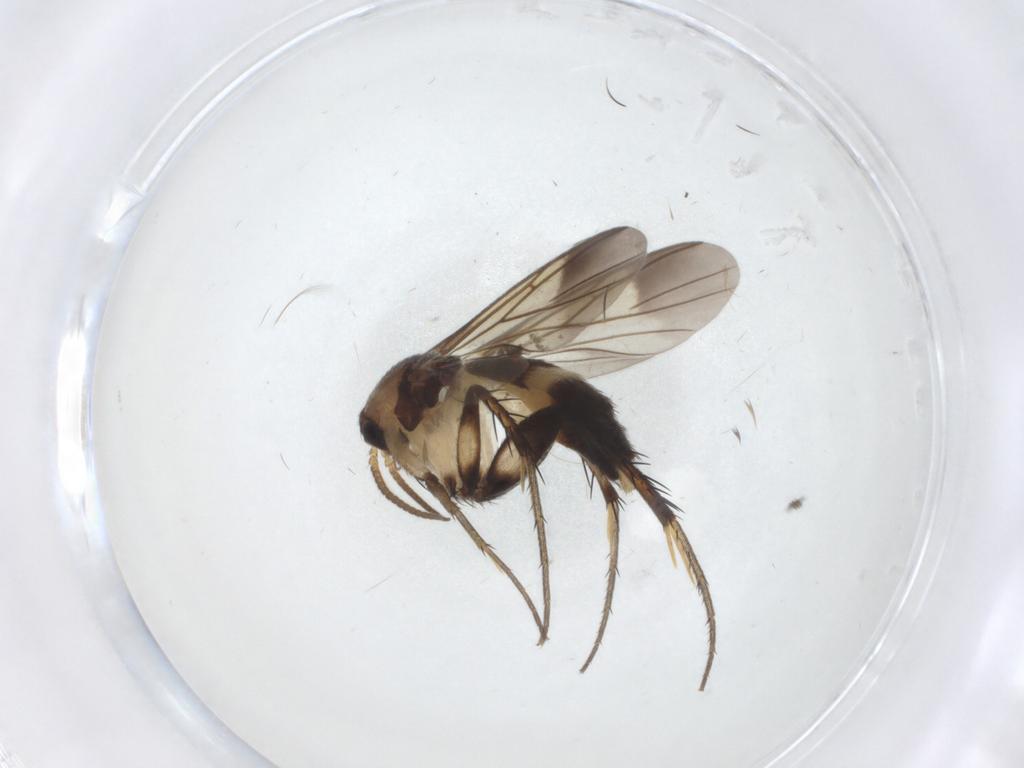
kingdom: Animalia
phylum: Arthropoda
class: Insecta
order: Diptera
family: Mycetophilidae
